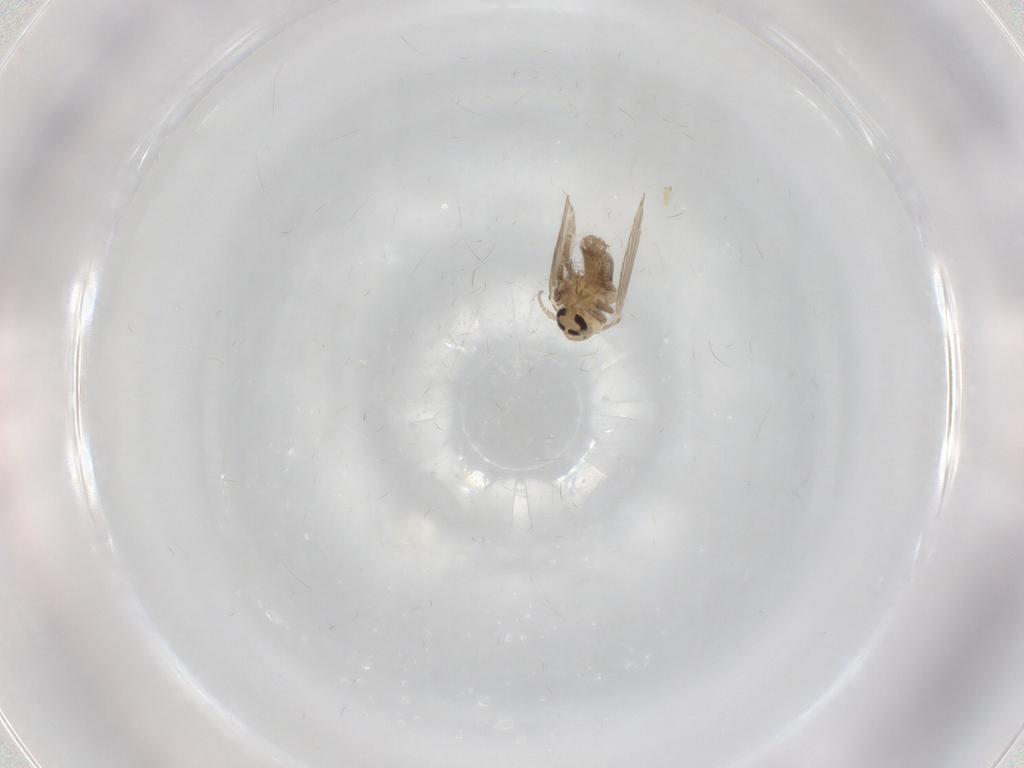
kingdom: Animalia
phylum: Arthropoda
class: Insecta
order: Diptera
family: Psychodidae
